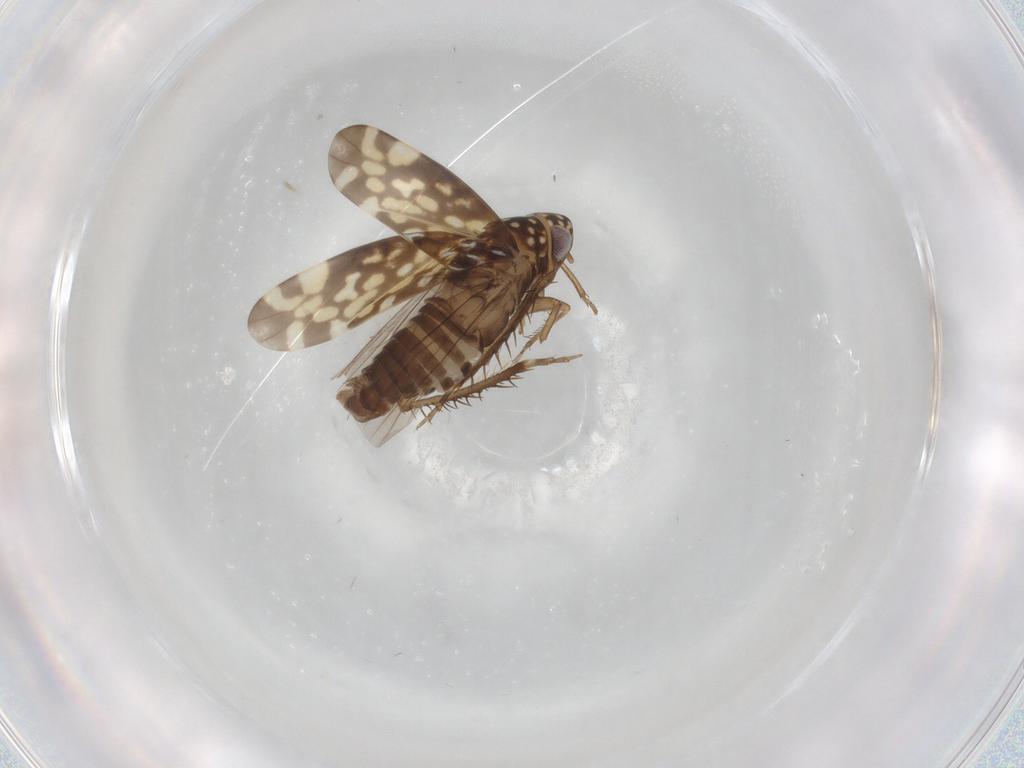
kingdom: Animalia
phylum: Arthropoda
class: Insecta
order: Hemiptera
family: Cicadellidae
